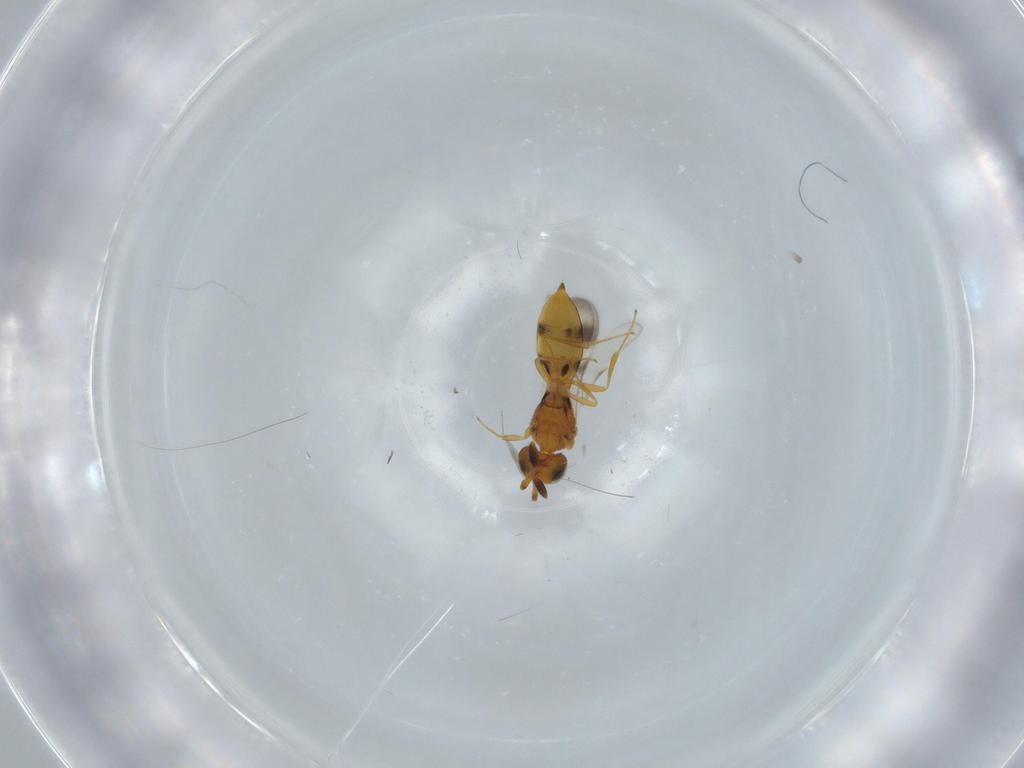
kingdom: Animalia
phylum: Arthropoda
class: Insecta
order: Hymenoptera
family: Scelionidae
